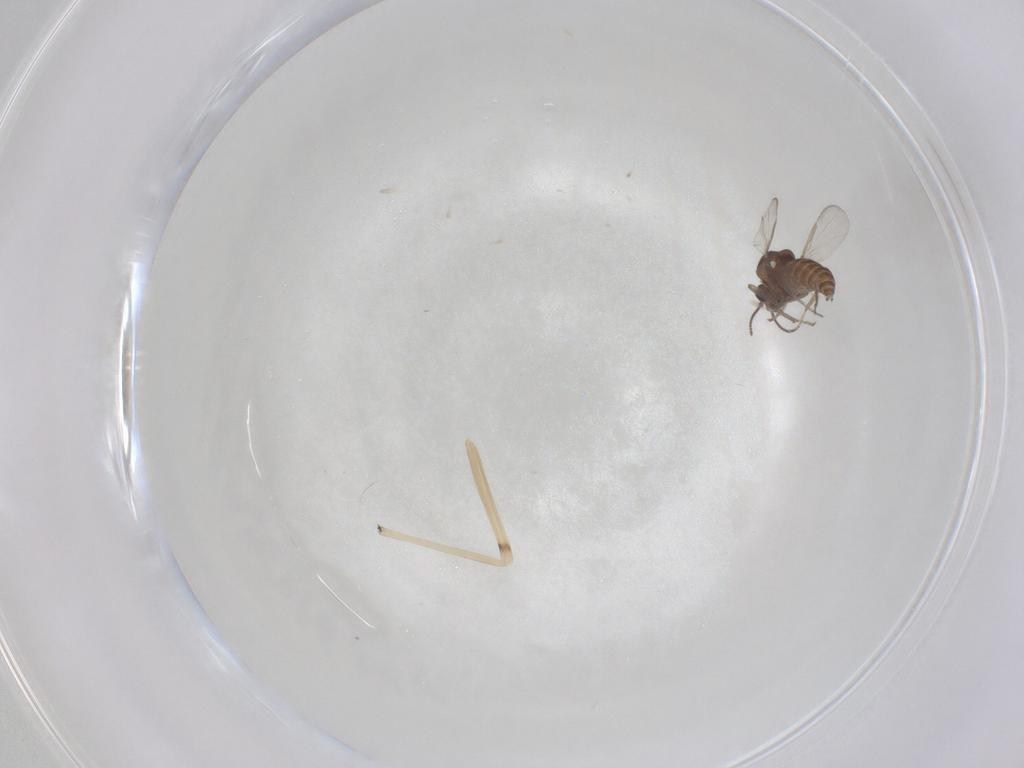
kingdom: Animalia
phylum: Arthropoda
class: Insecta
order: Diptera
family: Ceratopogonidae
